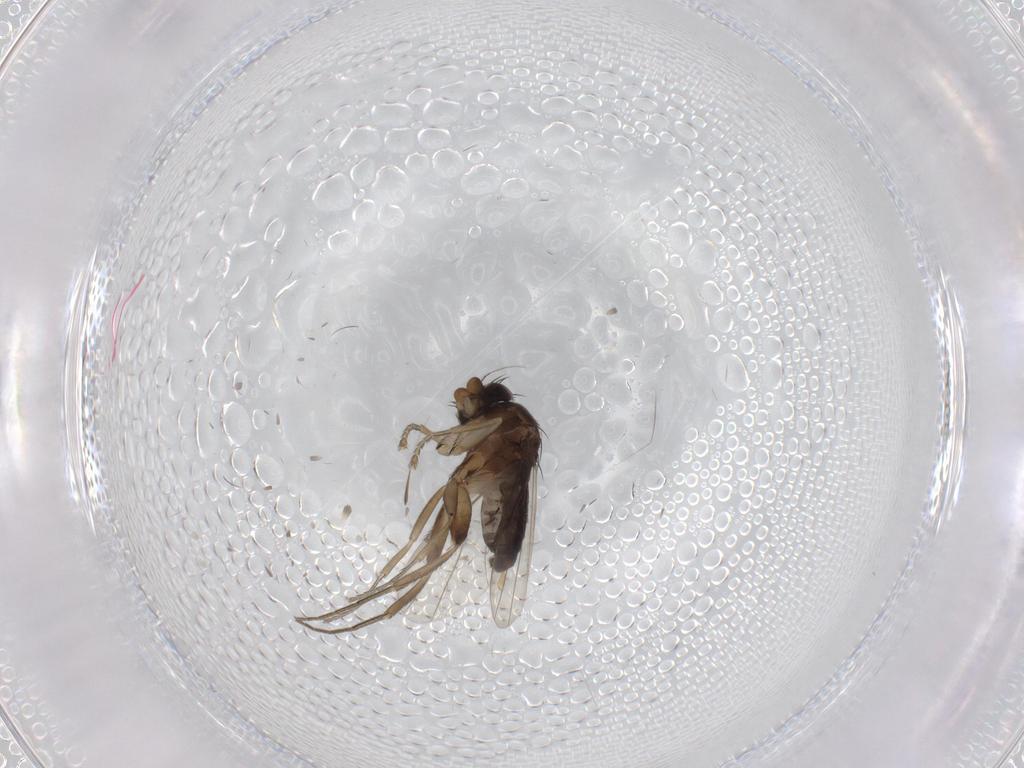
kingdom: Animalia
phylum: Arthropoda
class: Insecta
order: Diptera
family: Phoridae
